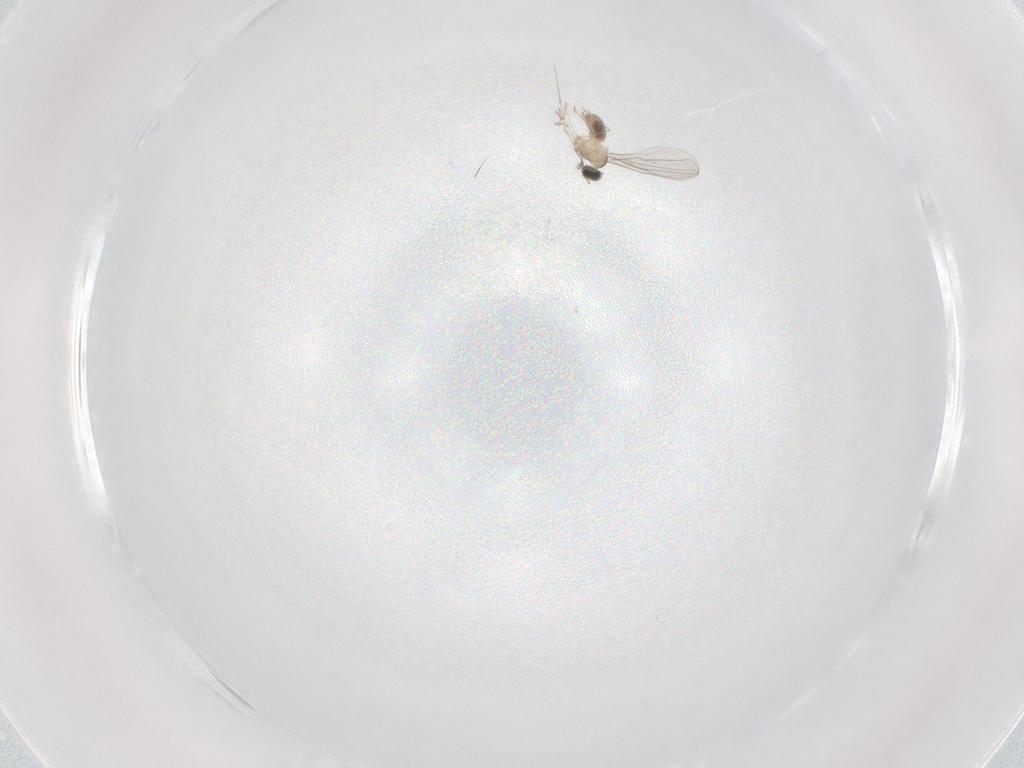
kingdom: Animalia
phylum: Arthropoda
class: Insecta
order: Diptera
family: Cecidomyiidae
